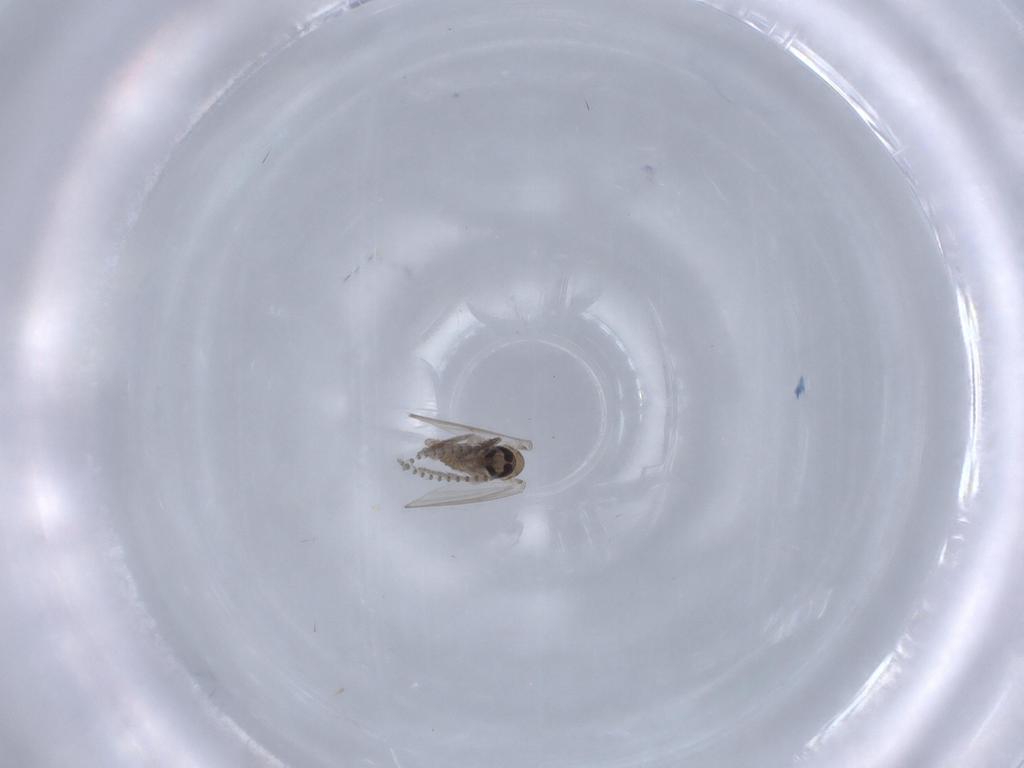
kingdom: Animalia
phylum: Arthropoda
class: Insecta
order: Diptera
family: Psychodidae
